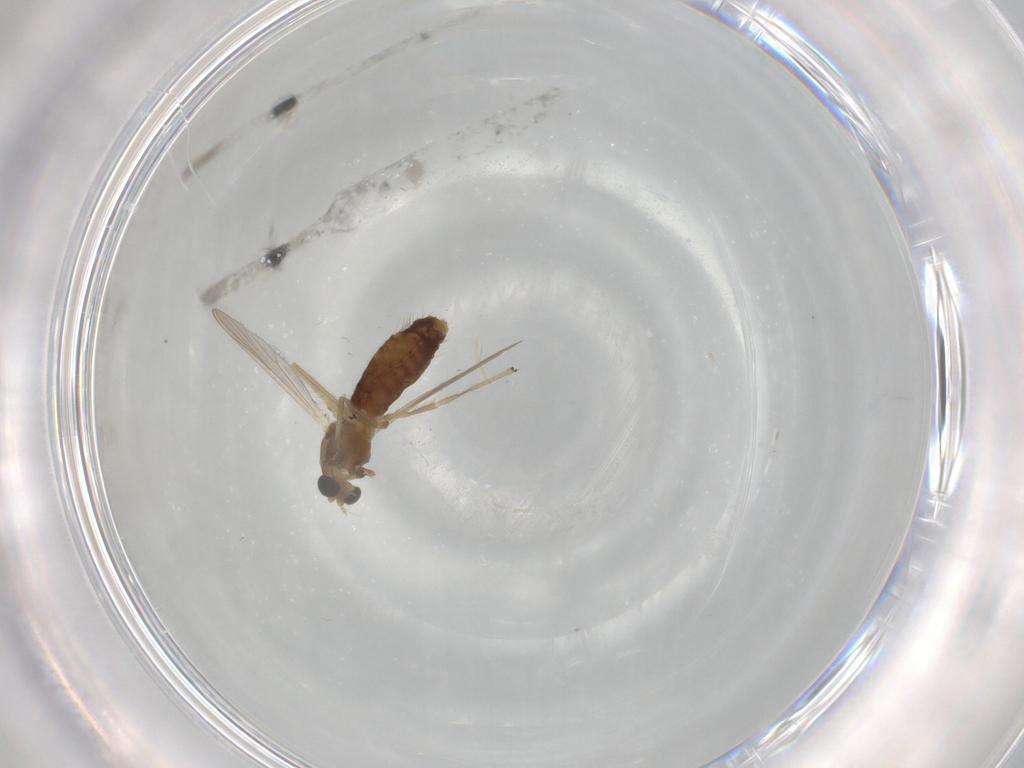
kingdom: Animalia
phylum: Arthropoda
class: Insecta
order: Diptera
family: Chironomidae
